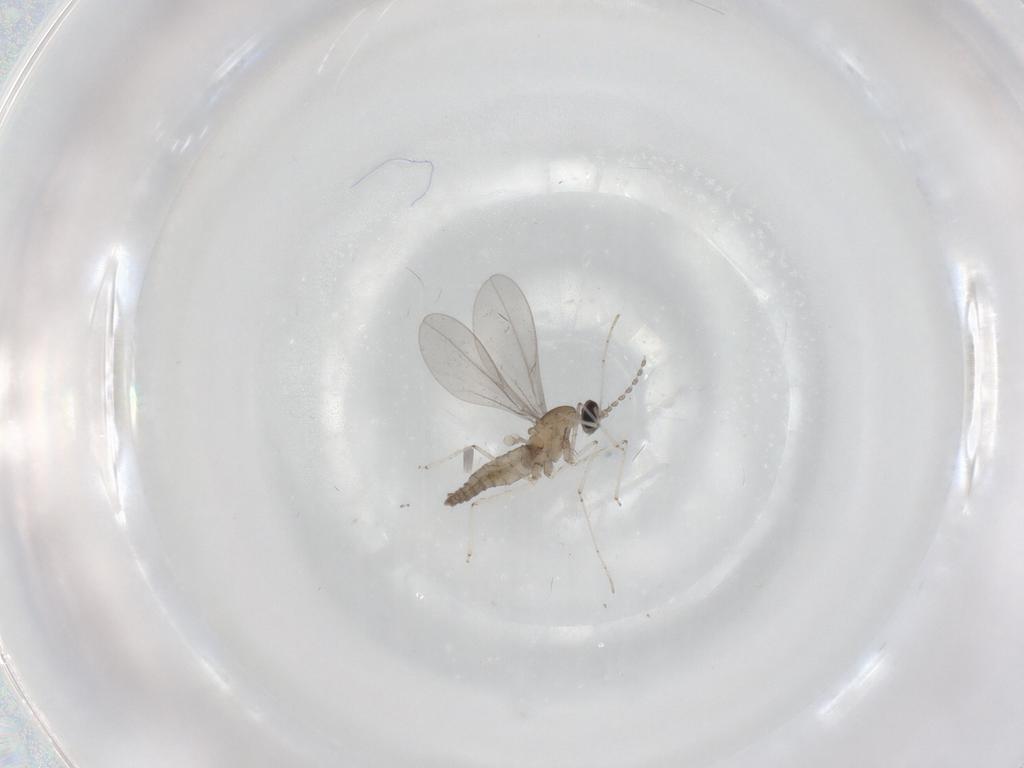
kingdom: Animalia
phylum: Arthropoda
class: Insecta
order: Diptera
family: Cecidomyiidae
